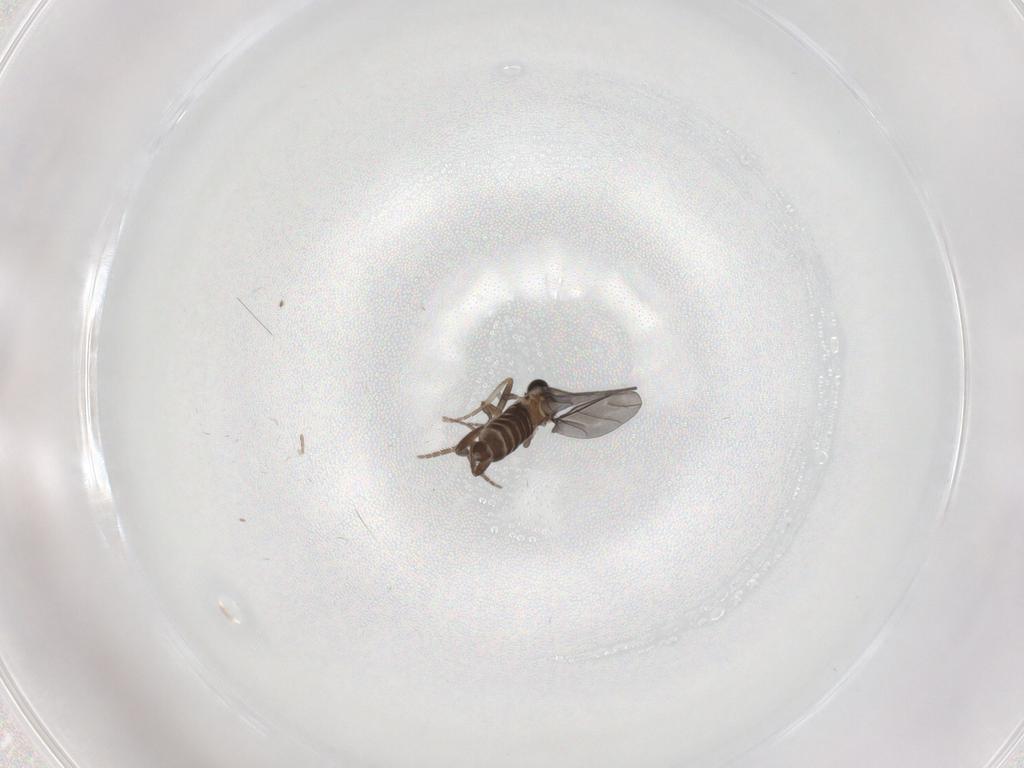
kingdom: Animalia
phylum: Arthropoda
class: Insecta
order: Diptera
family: Phoridae
